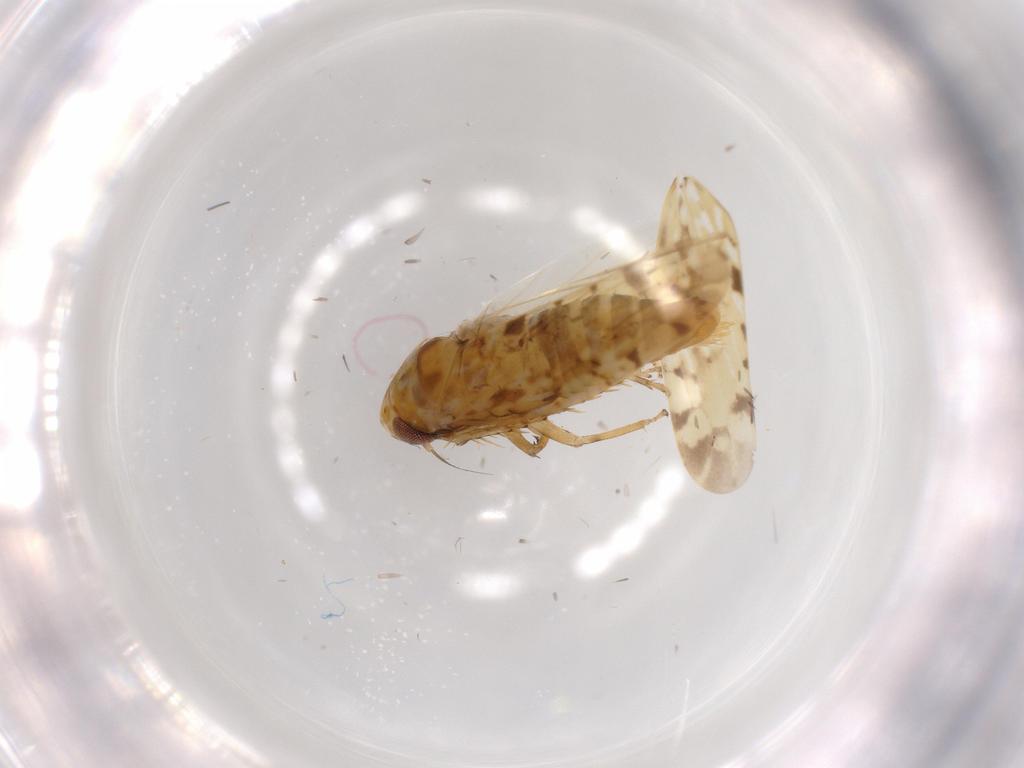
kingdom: Animalia
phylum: Arthropoda
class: Insecta
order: Hemiptera
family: Cicadellidae
